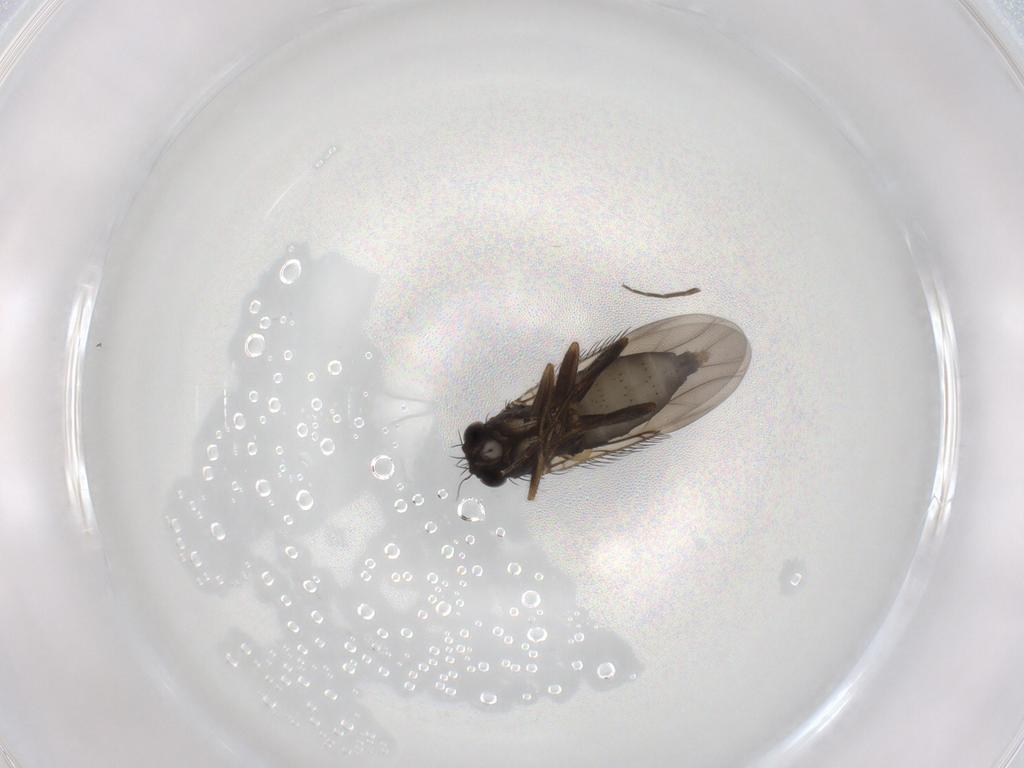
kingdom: Animalia
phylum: Arthropoda
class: Insecta
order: Diptera
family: Phoridae
